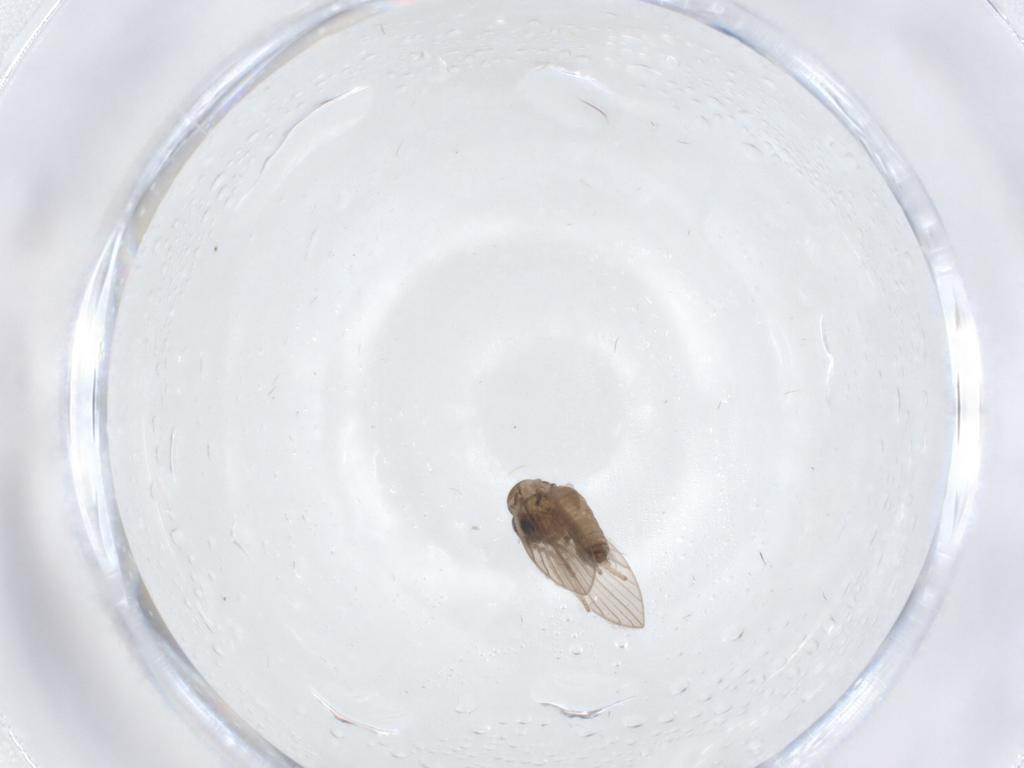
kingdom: Animalia
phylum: Arthropoda
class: Insecta
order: Diptera
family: Psychodidae
